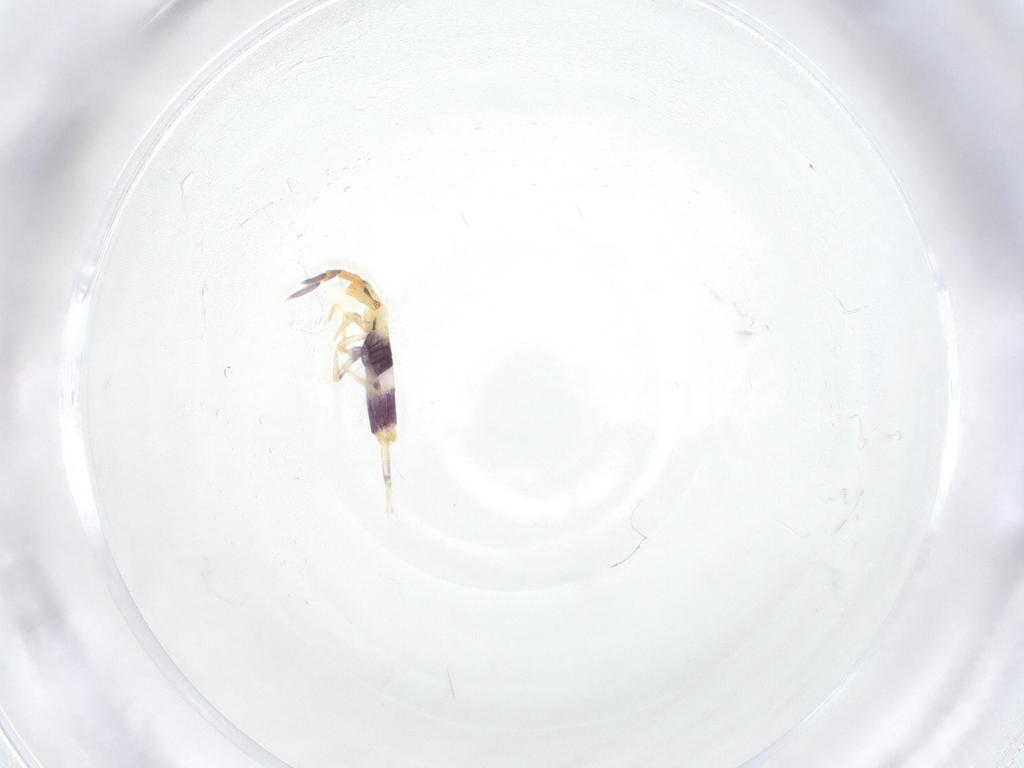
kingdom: Animalia
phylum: Arthropoda
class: Collembola
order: Entomobryomorpha
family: Entomobryidae
